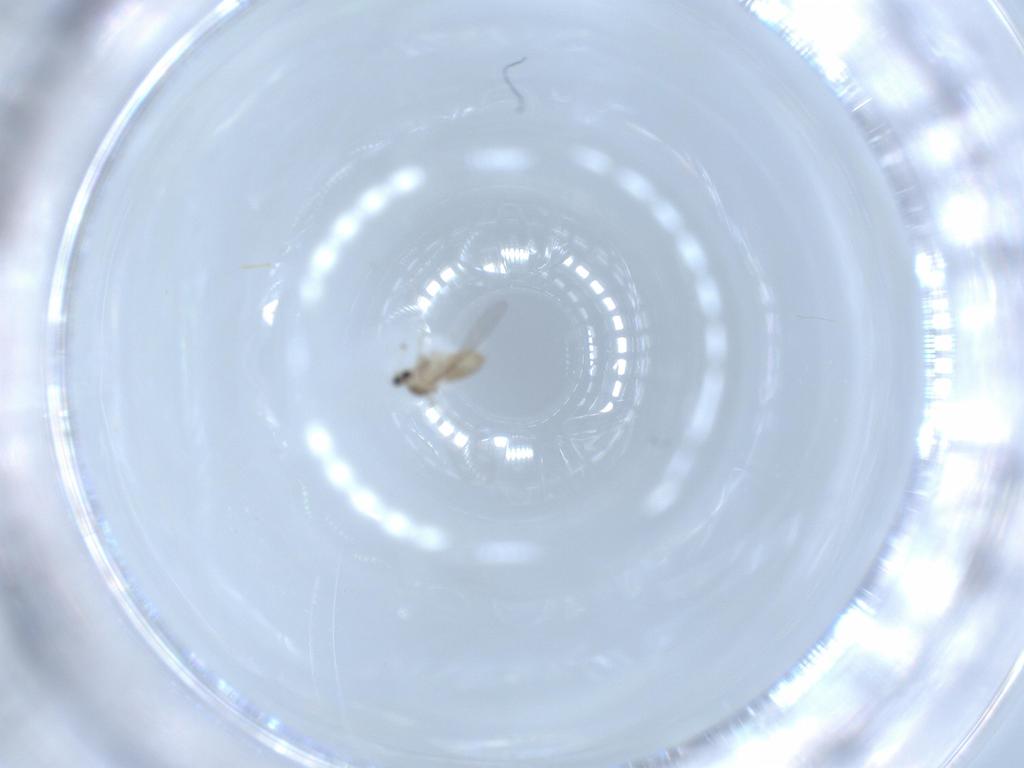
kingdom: Animalia
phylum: Arthropoda
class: Insecta
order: Diptera
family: Cecidomyiidae
